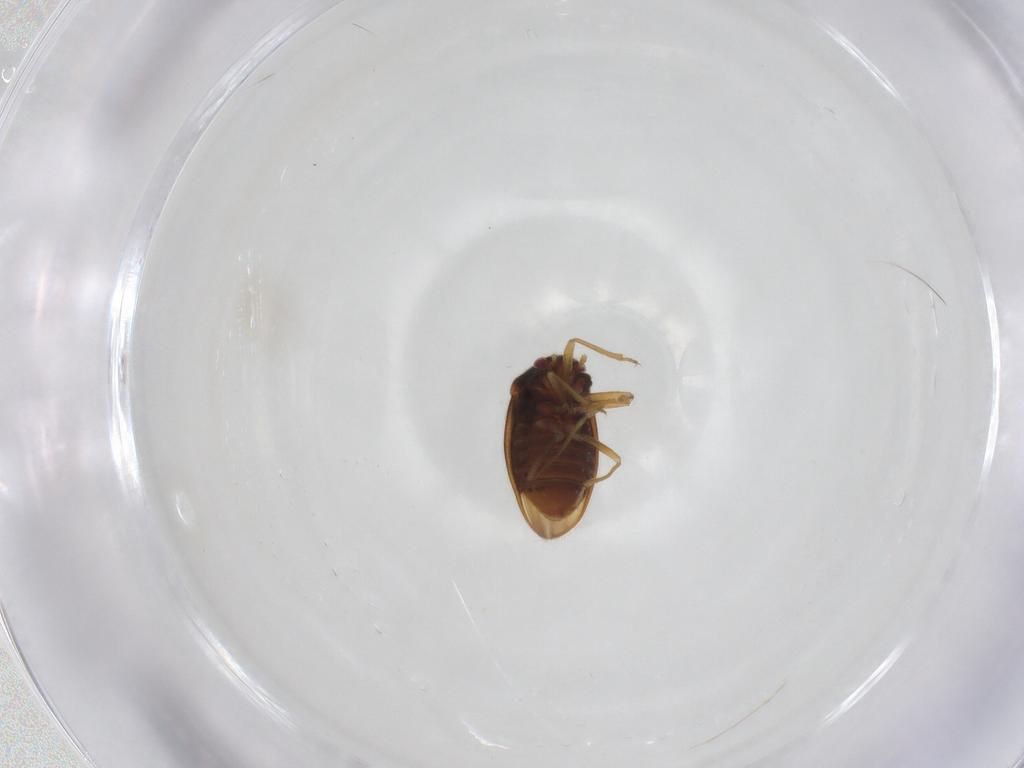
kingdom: Animalia
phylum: Arthropoda
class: Insecta
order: Hemiptera
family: Schizopteridae
